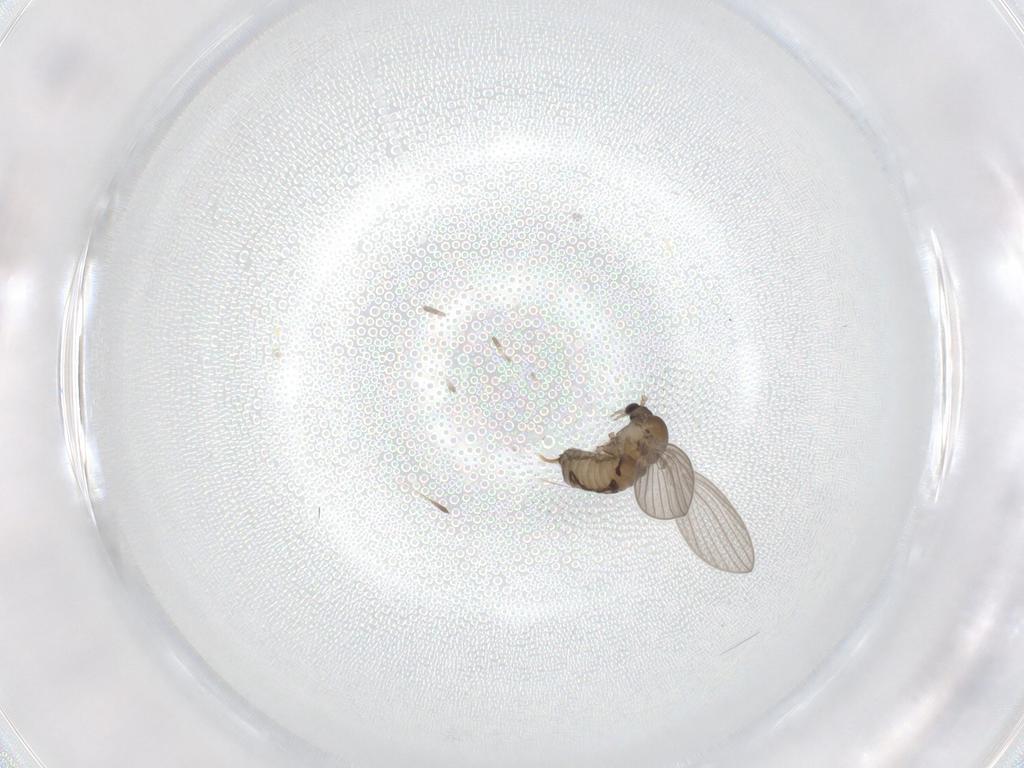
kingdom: Animalia
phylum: Arthropoda
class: Insecta
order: Diptera
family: Psychodidae
